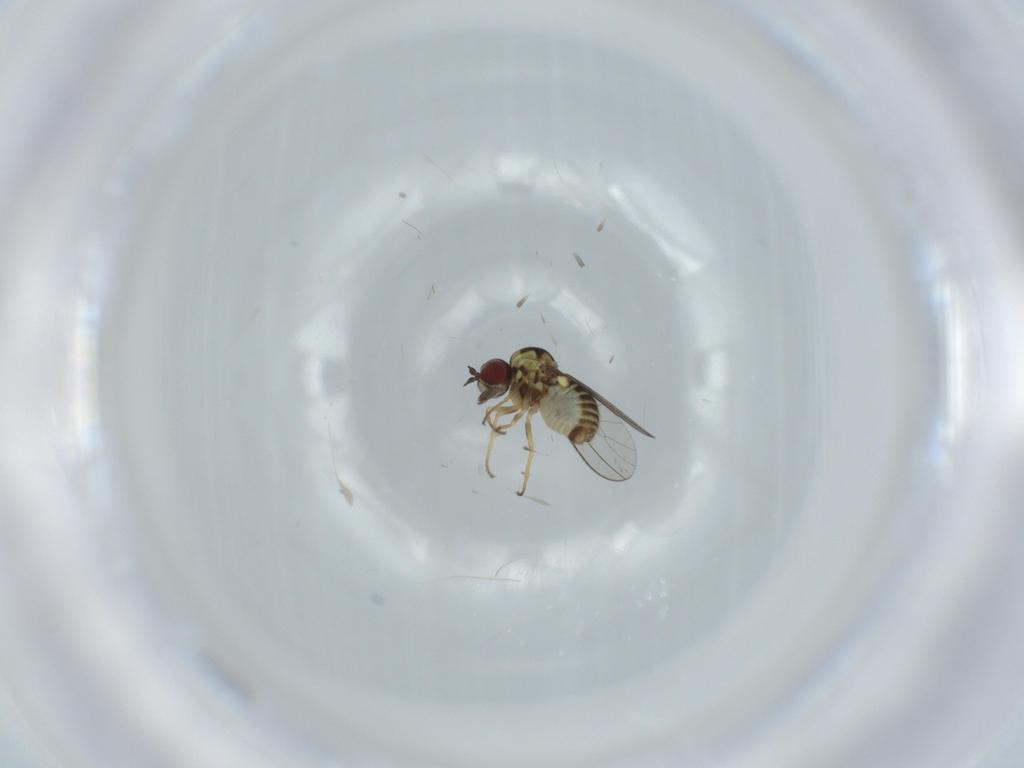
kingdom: Animalia
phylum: Arthropoda
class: Insecta
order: Diptera
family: Bombyliidae
